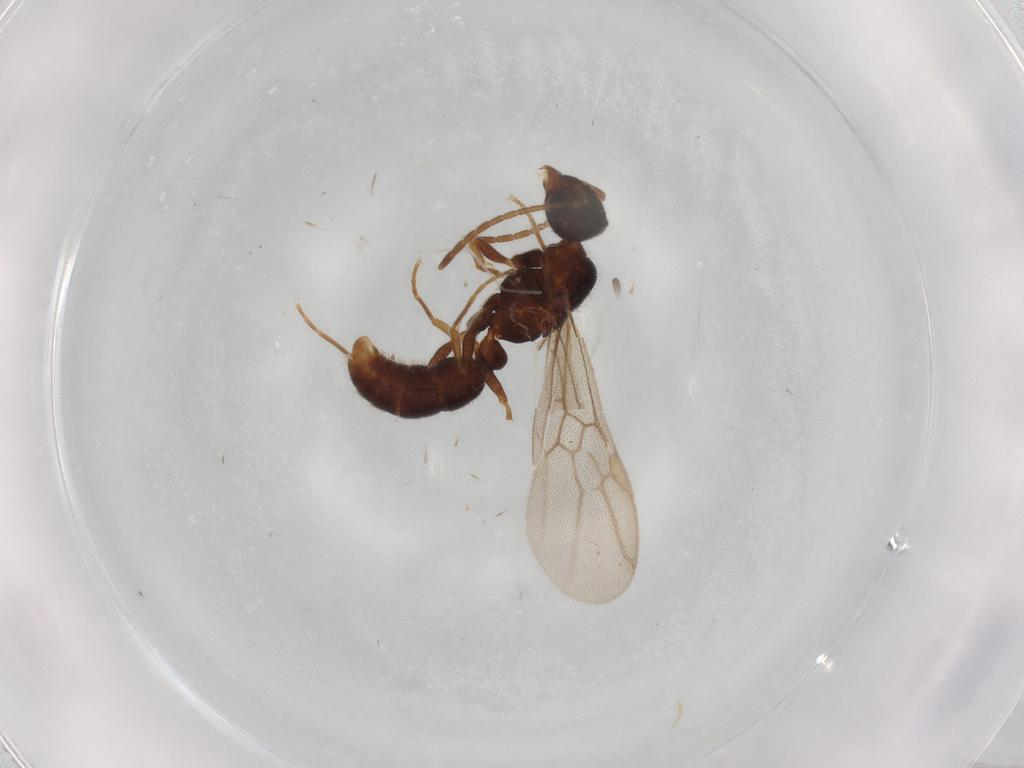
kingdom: Animalia
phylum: Arthropoda
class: Insecta
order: Hymenoptera
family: Formicidae
